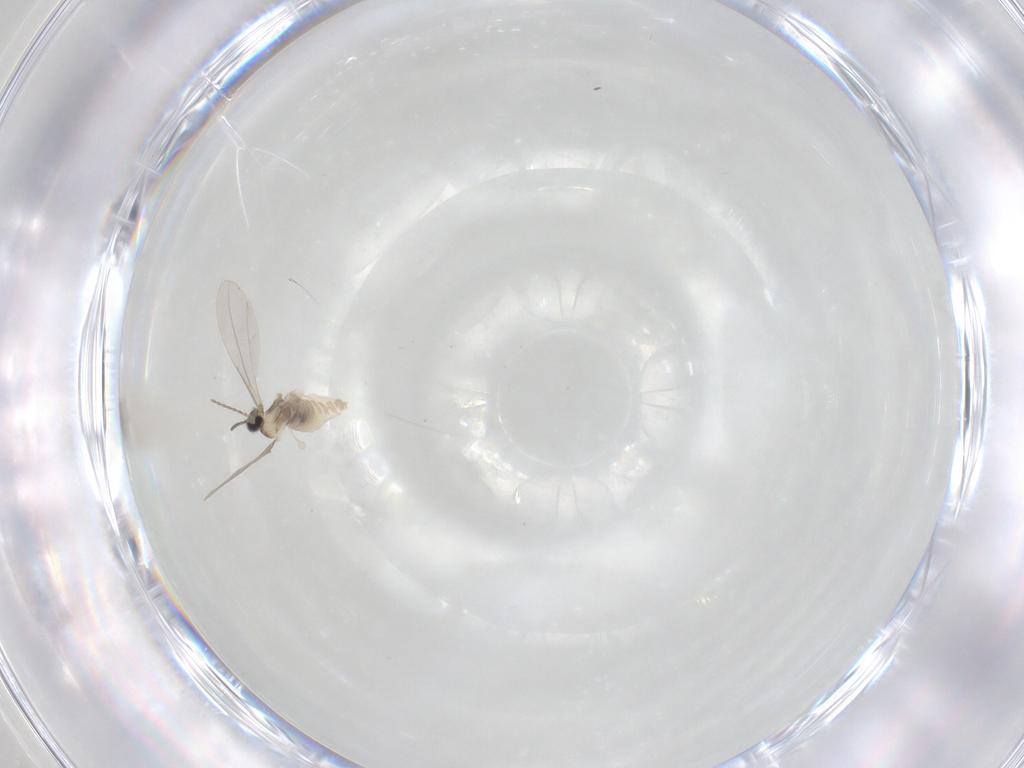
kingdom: Animalia
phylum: Arthropoda
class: Insecta
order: Diptera
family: Cecidomyiidae
